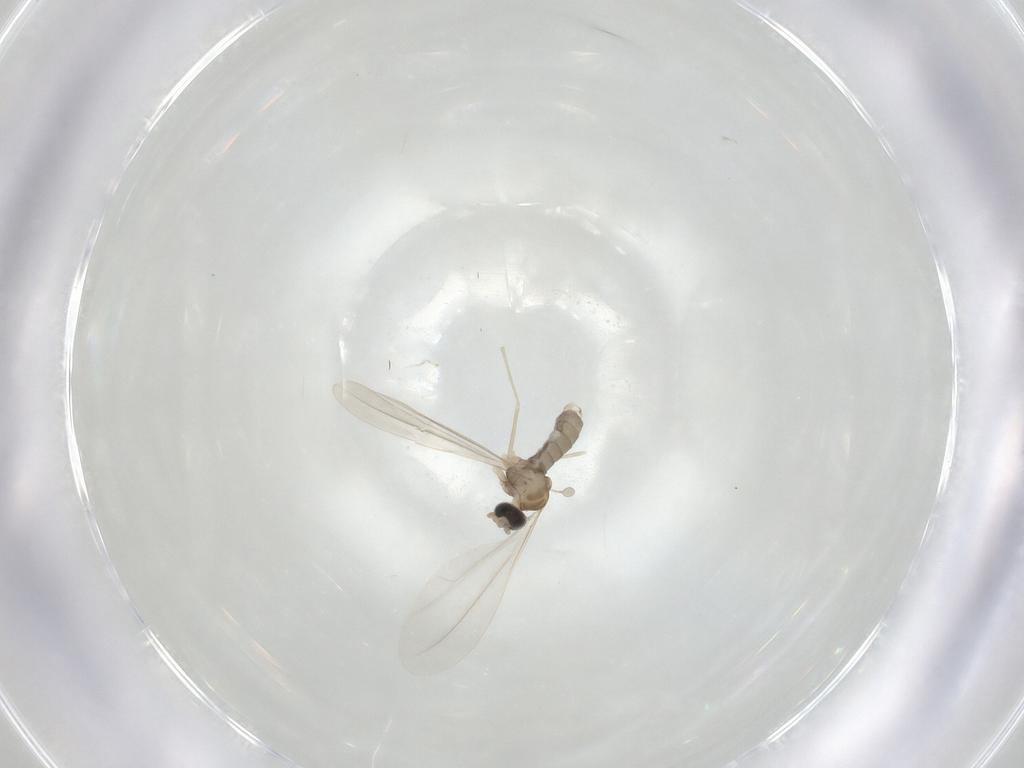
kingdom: Animalia
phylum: Arthropoda
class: Insecta
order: Diptera
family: Cecidomyiidae
